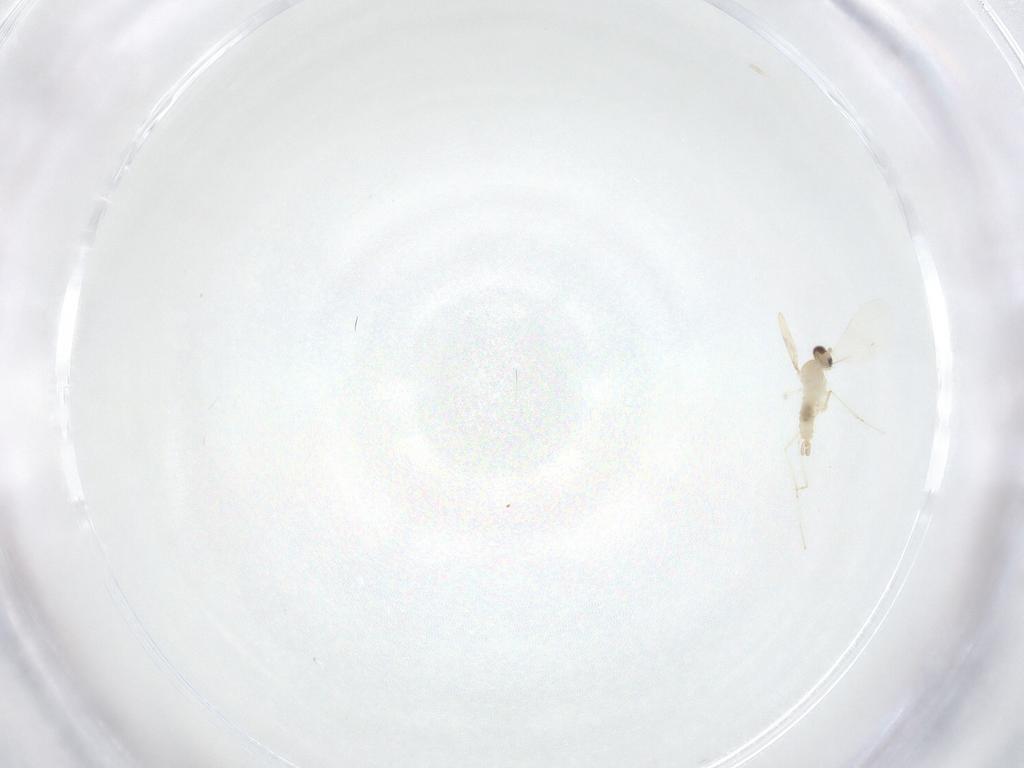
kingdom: Animalia
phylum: Arthropoda
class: Insecta
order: Diptera
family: Cecidomyiidae
